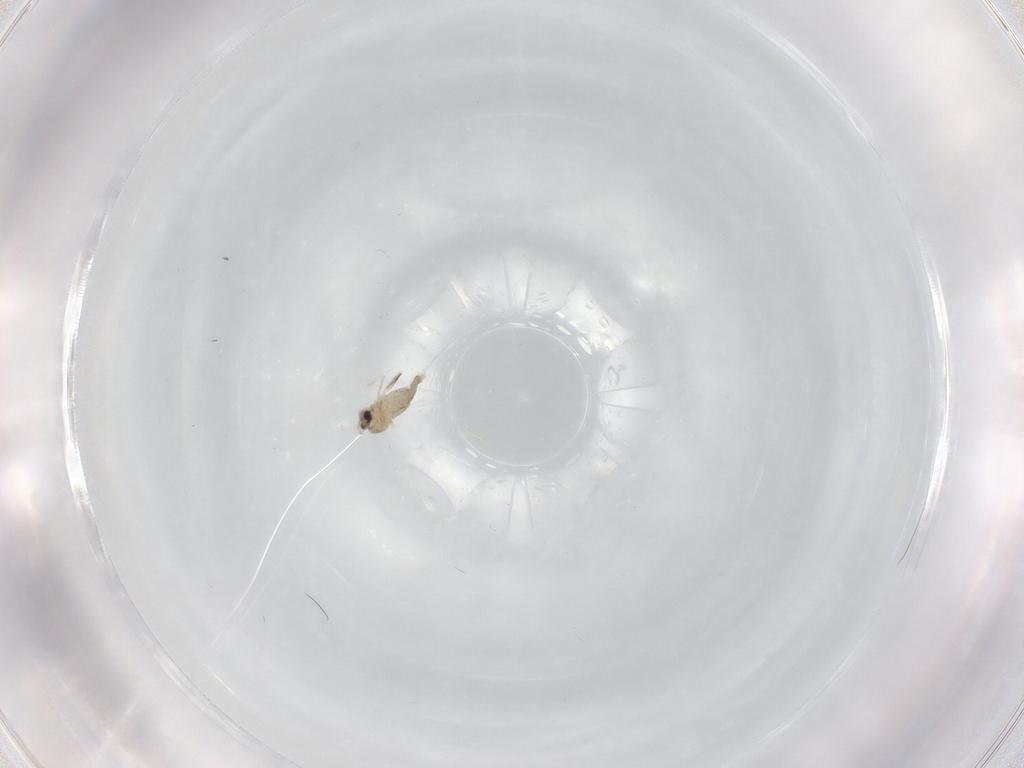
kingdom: Animalia
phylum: Arthropoda
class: Insecta
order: Diptera
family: Cecidomyiidae
